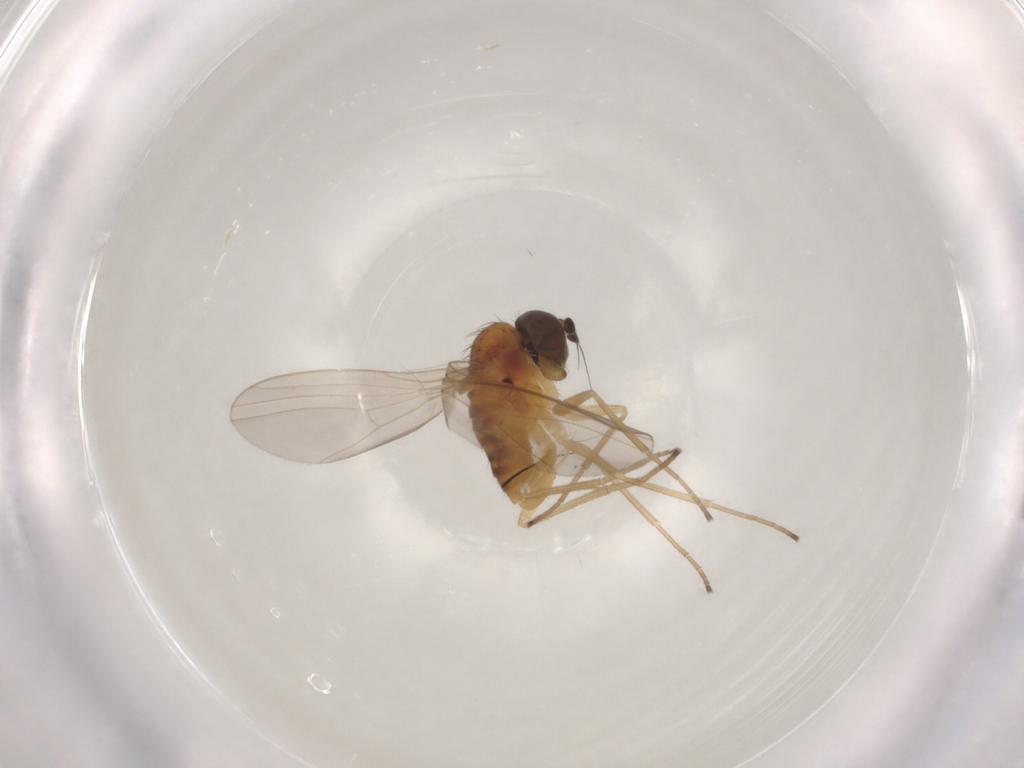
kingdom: Animalia
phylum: Arthropoda
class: Insecta
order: Diptera
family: Dolichopodidae
